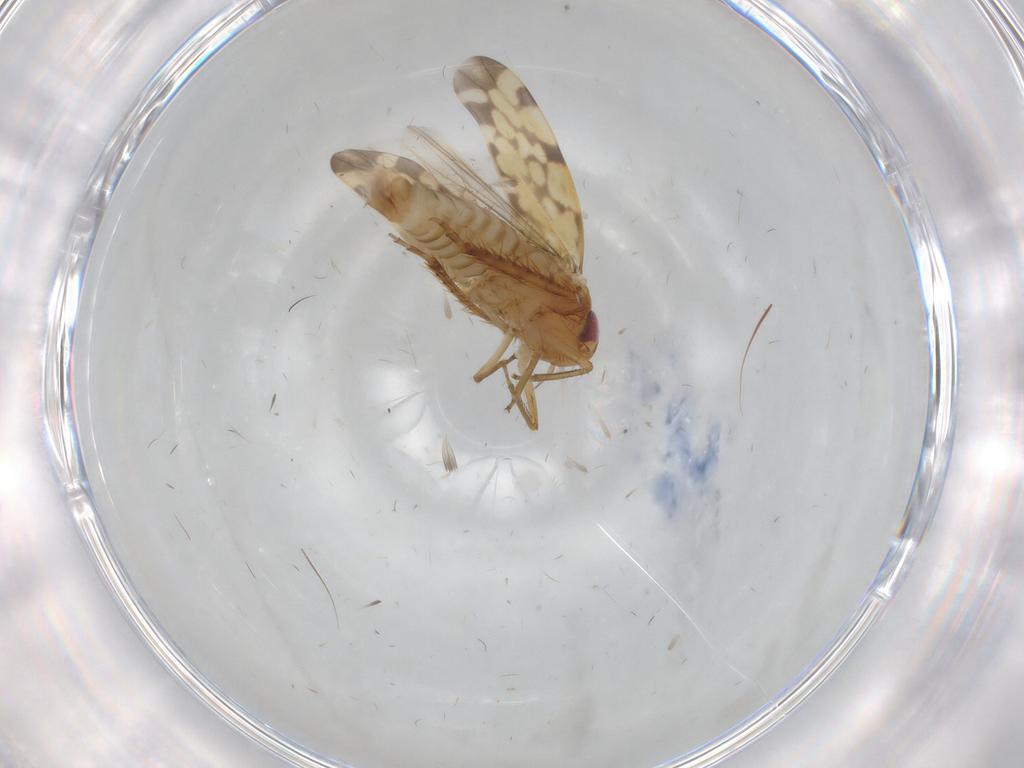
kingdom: Animalia
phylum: Arthropoda
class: Insecta
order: Hemiptera
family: Cicadellidae
